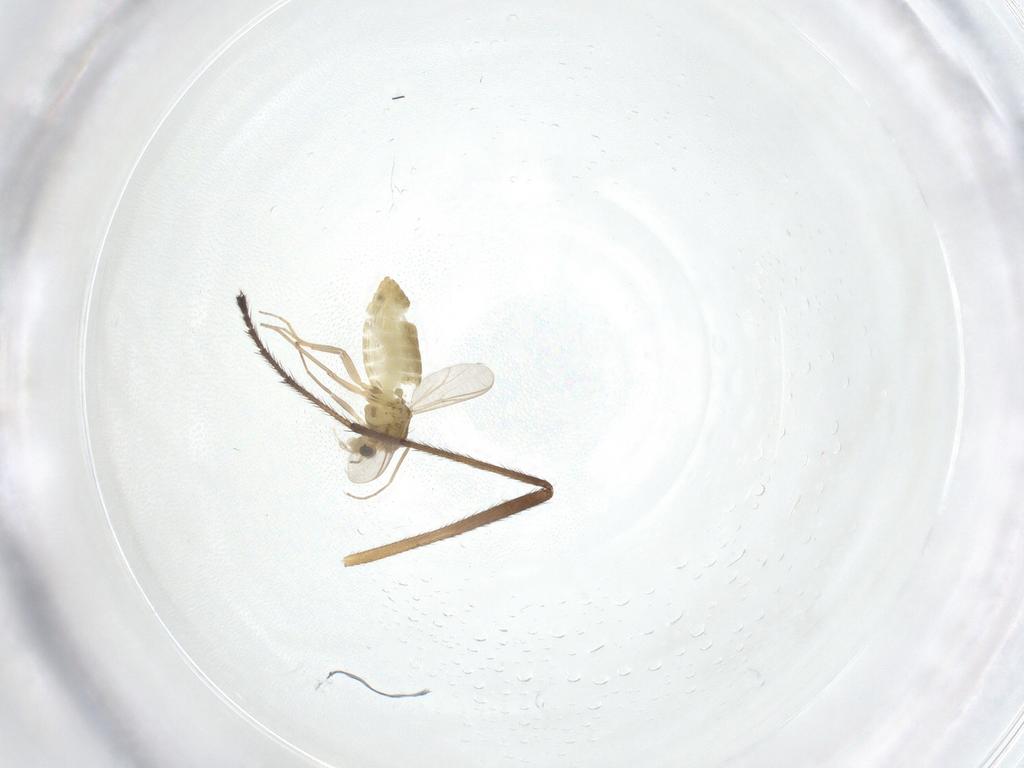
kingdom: Animalia
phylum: Arthropoda
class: Insecta
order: Diptera
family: Agromyzidae
